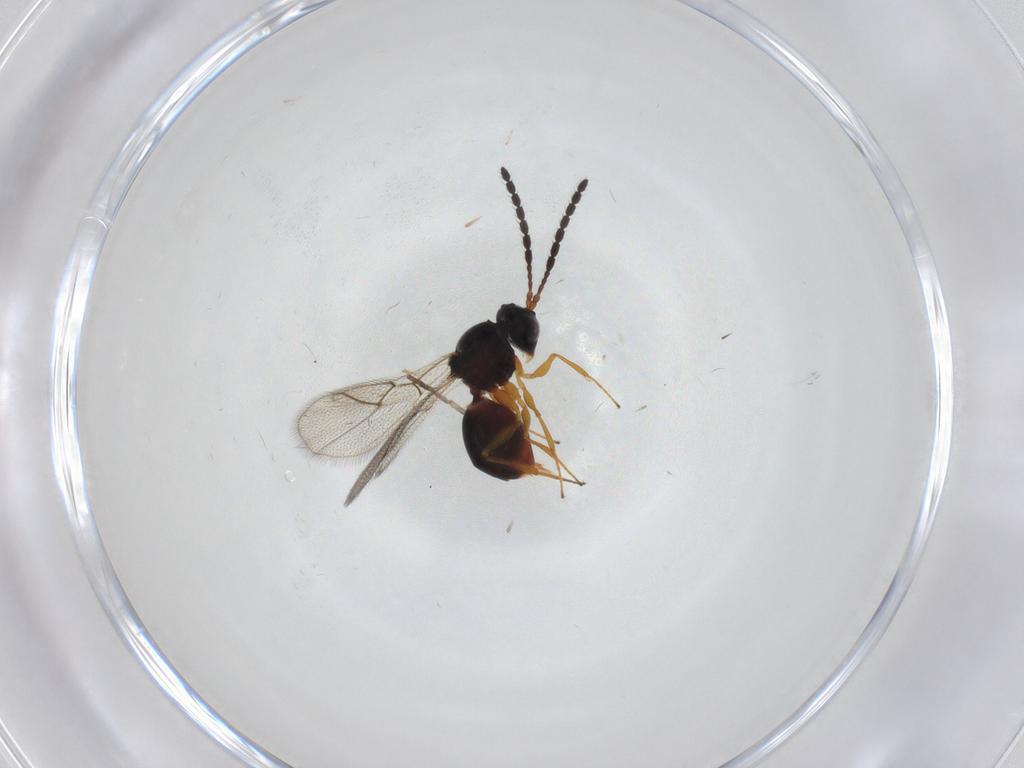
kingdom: Animalia
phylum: Arthropoda
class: Insecta
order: Hymenoptera
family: Figitidae
